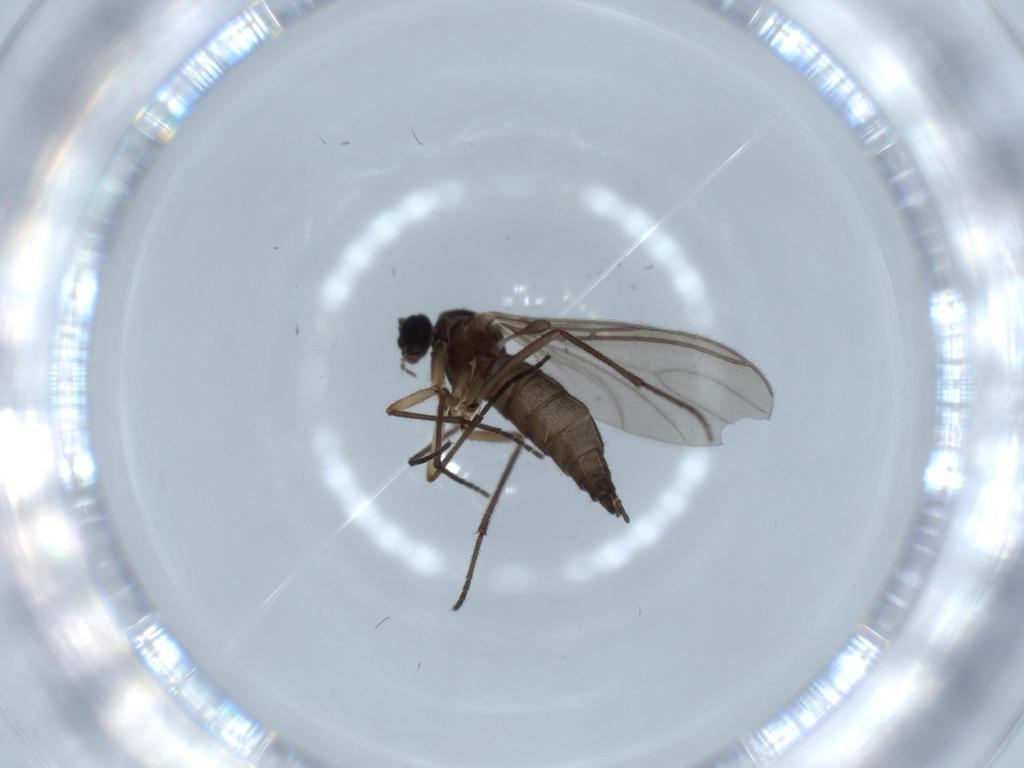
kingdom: Animalia
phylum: Arthropoda
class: Insecta
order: Diptera
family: Sciaridae
